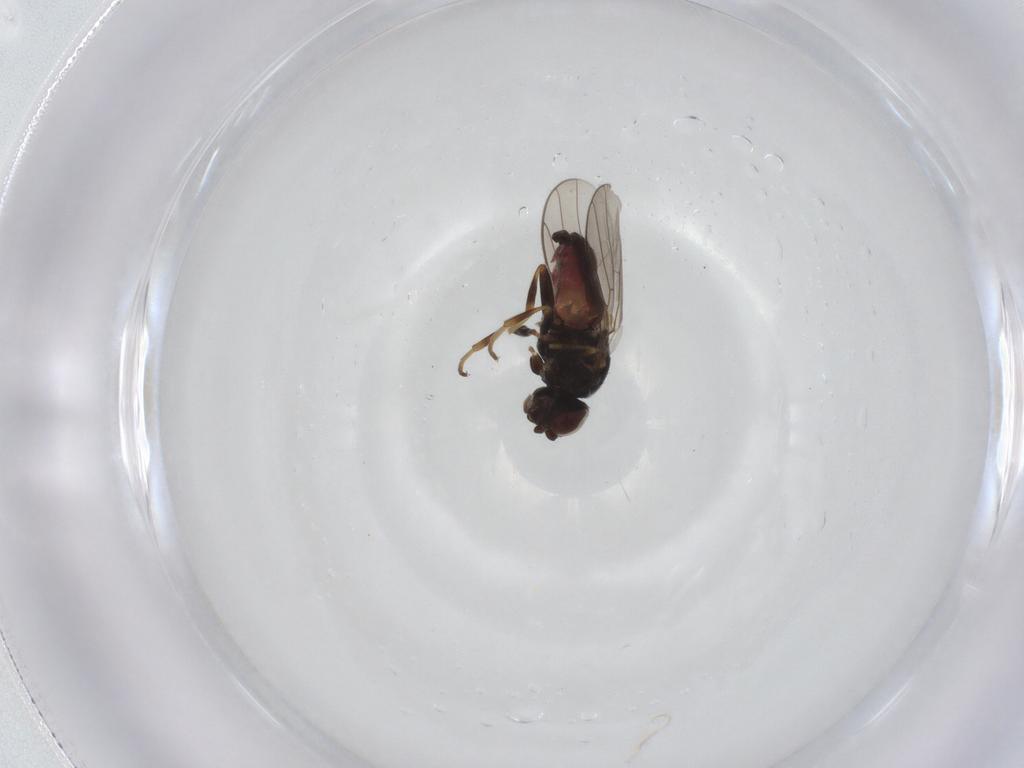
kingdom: Animalia
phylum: Arthropoda
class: Insecta
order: Diptera
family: Chloropidae
